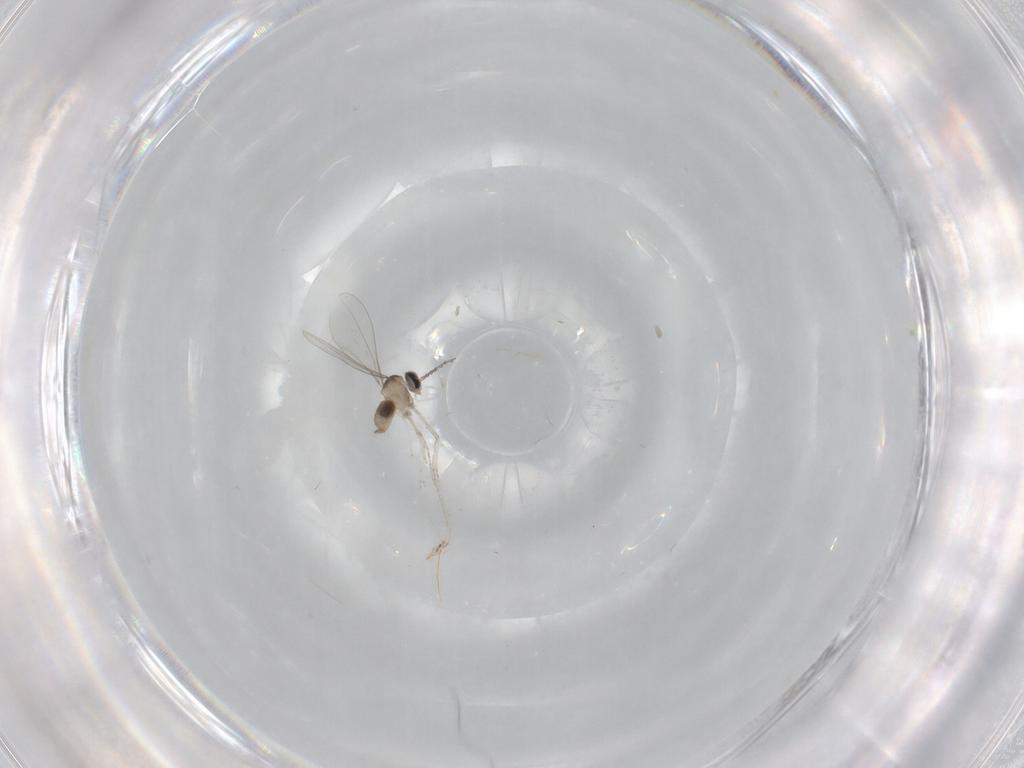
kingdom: Animalia
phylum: Arthropoda
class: Insecta
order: Diptera
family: Cecidomyiidae
